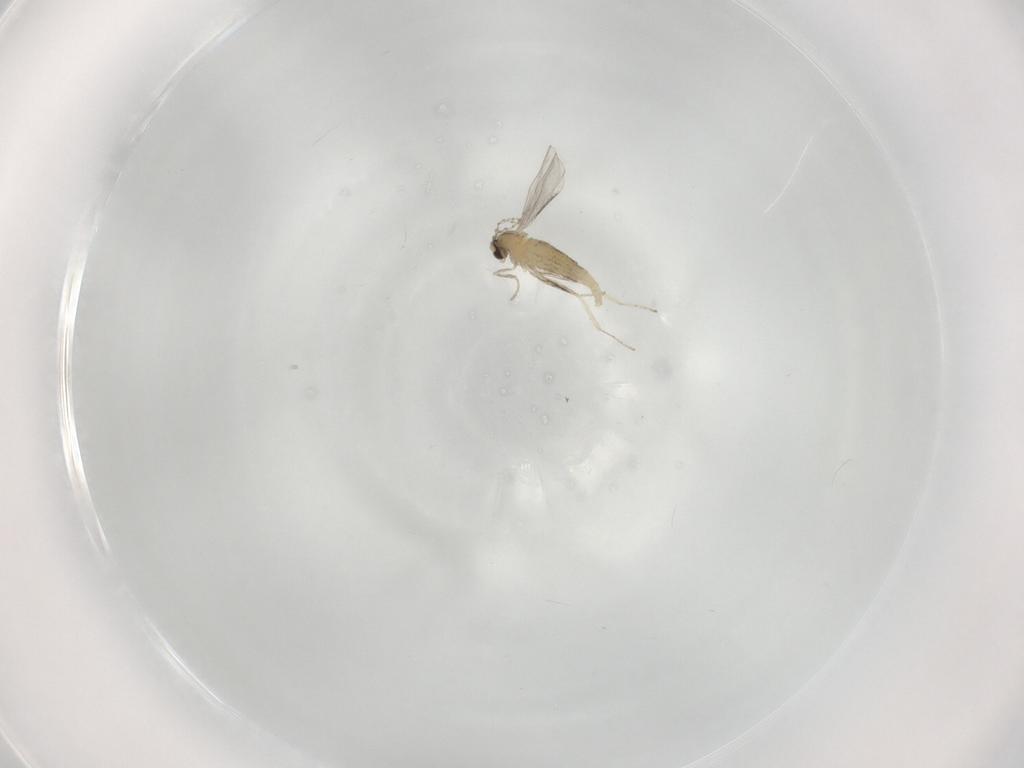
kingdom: Animalia
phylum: Arthropoda
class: Insecta
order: Diptera
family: Cecidomyiidae
